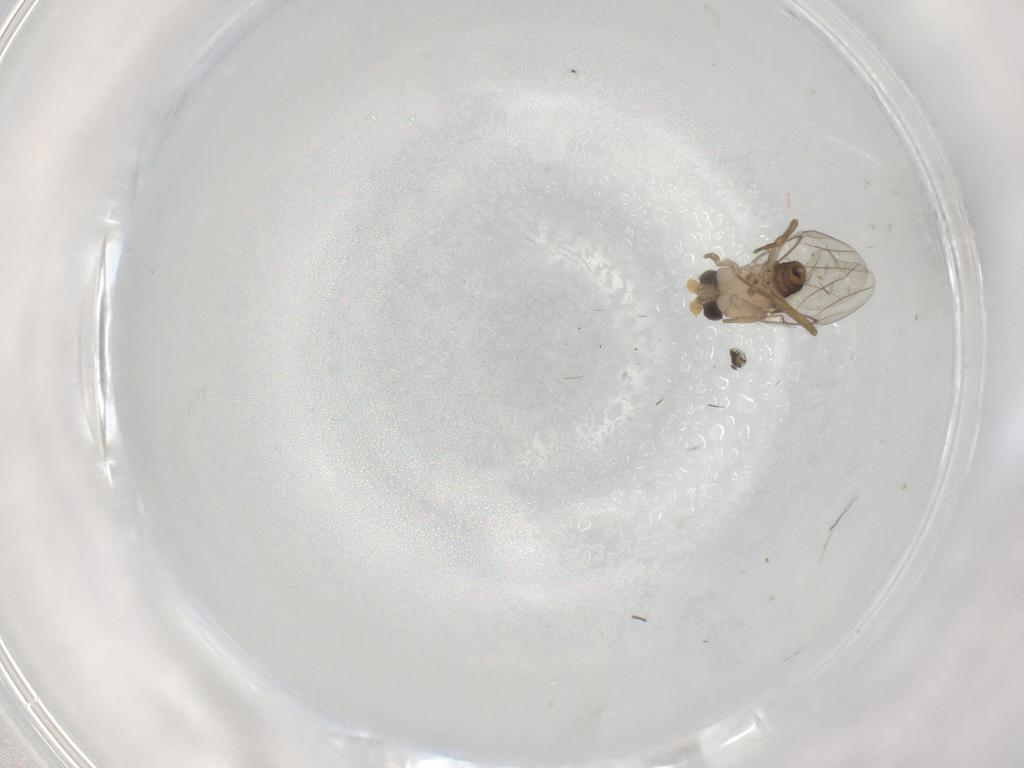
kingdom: Animalia
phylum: Arthropoda
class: Insecta
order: Diptera
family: Phoridae
